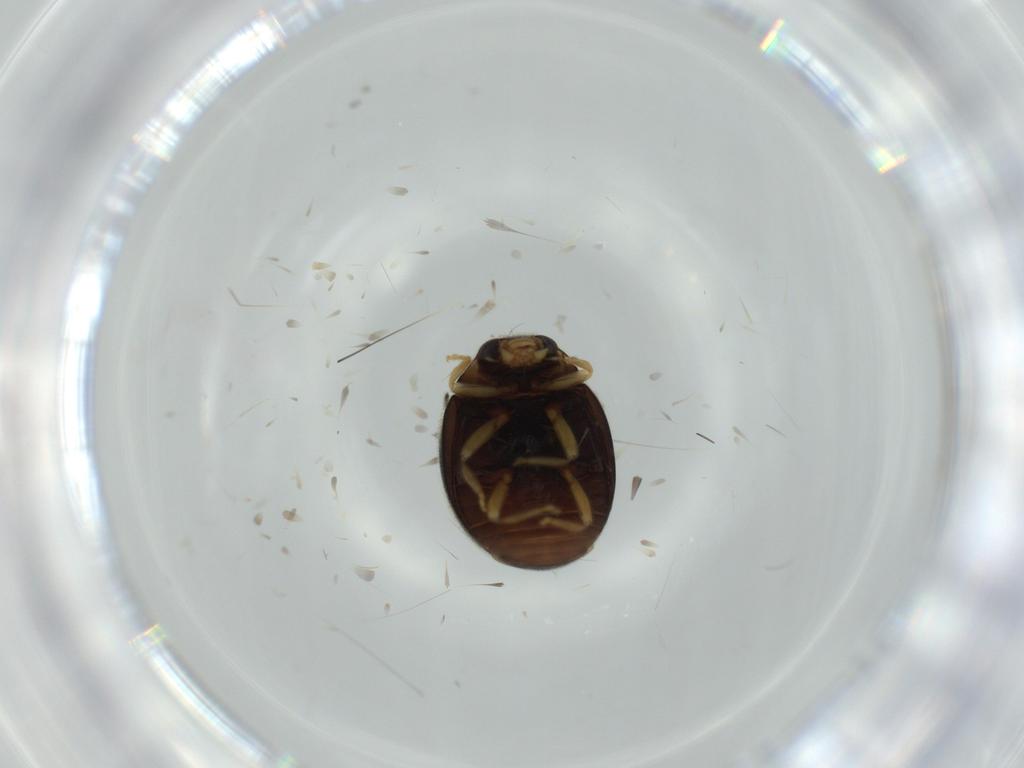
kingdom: Animalia
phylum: Arthropoda
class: Insecta
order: Coleoptera
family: Coccinellidae
